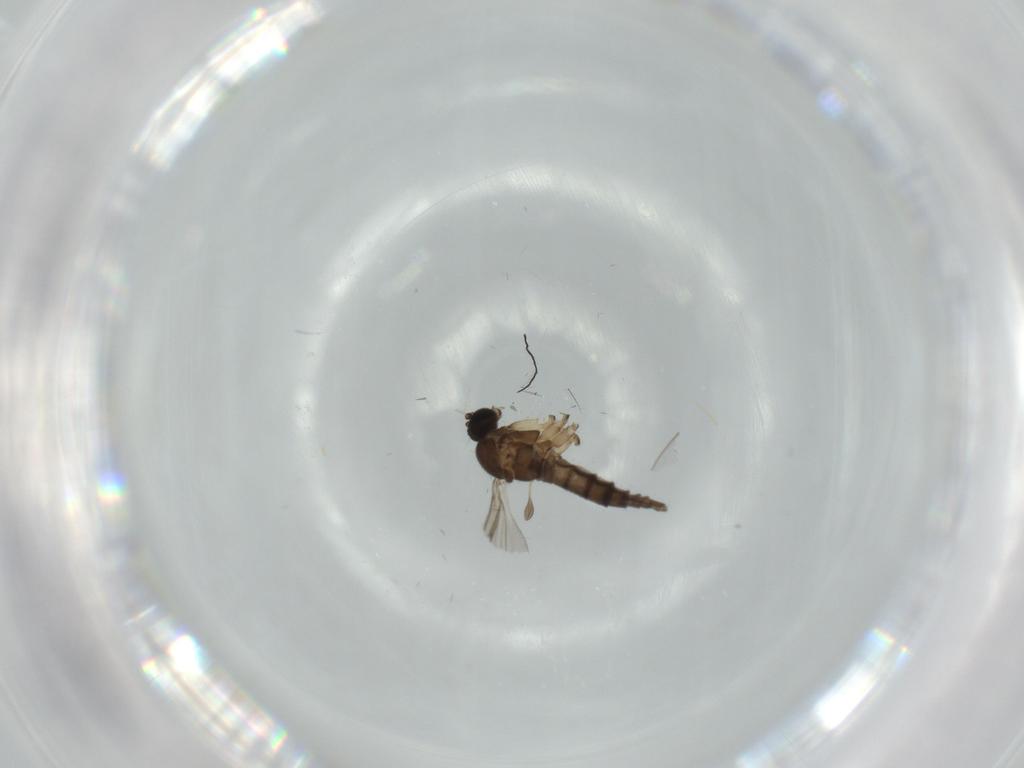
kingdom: Animalia
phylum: Arthropoda
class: Insecta
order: Diptera
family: Sciaridae
